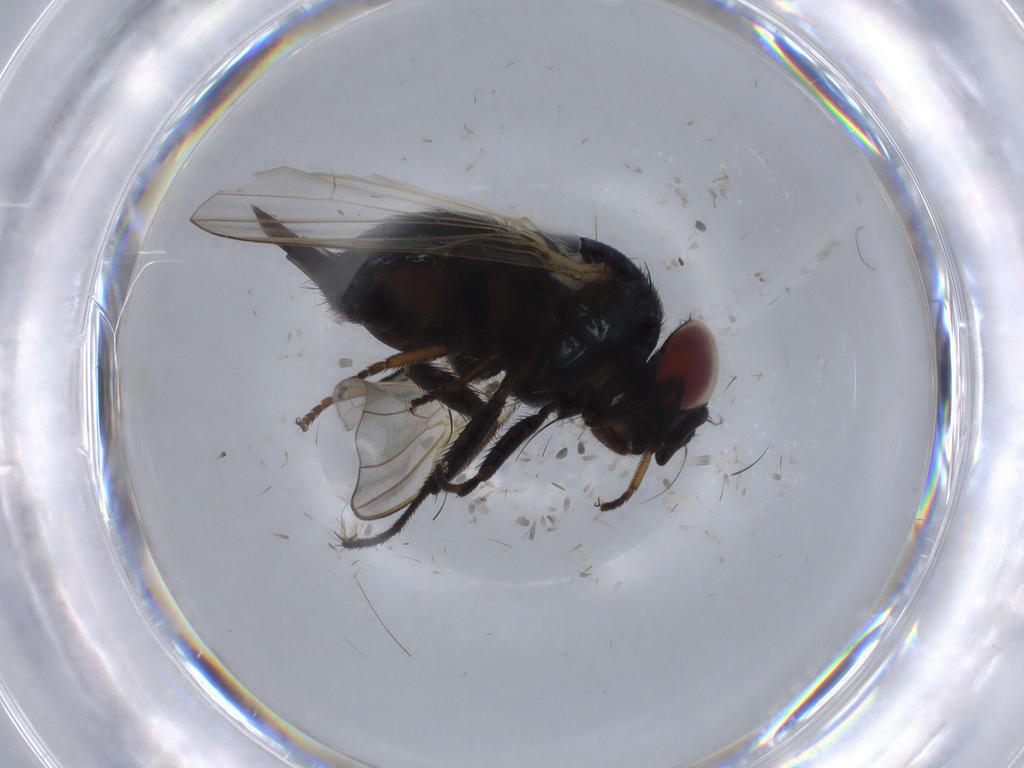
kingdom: Animalia
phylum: Arthropoda
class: Insecta
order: Diptera
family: Anthomyiidae
